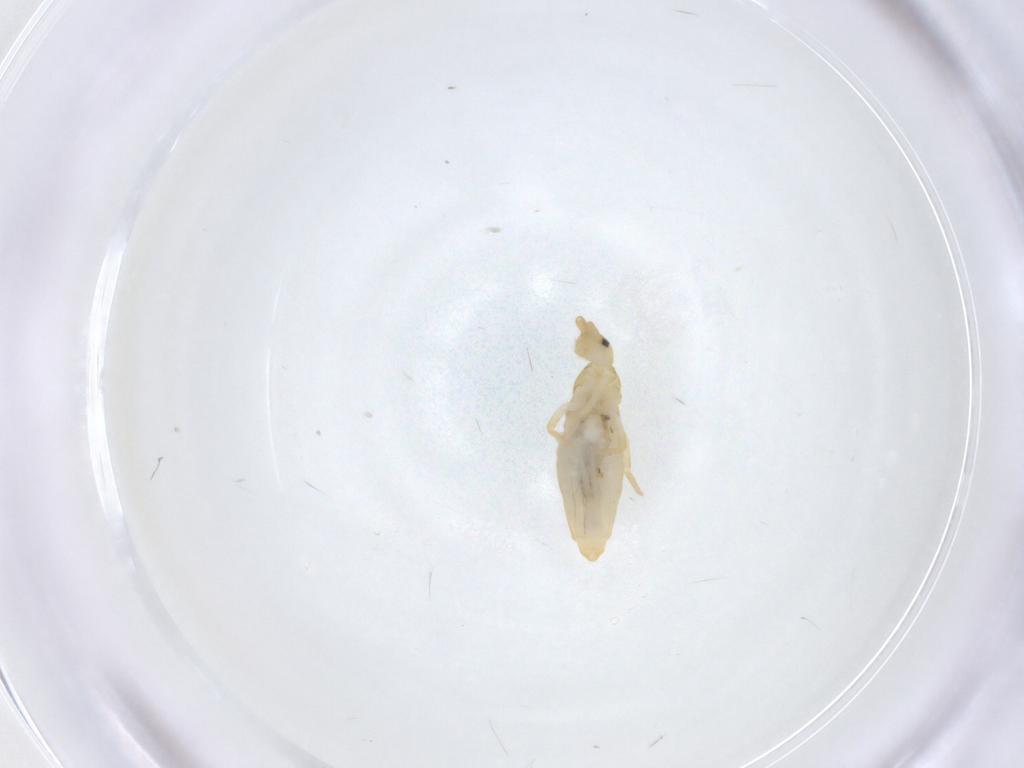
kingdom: Animalia
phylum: Arthropoda
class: Collembola
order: Entomobryomorpha
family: Entomobryidae
